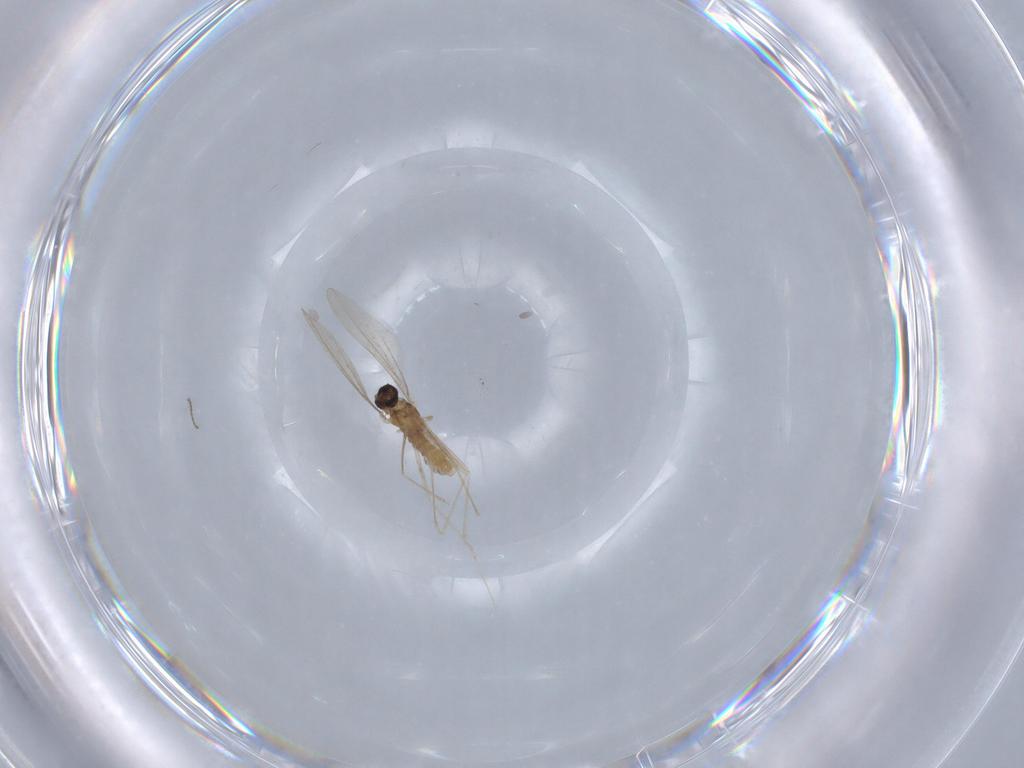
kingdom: Animalia
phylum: Arthropoda
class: Insecta
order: Diptera
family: Cecidomyiidae
